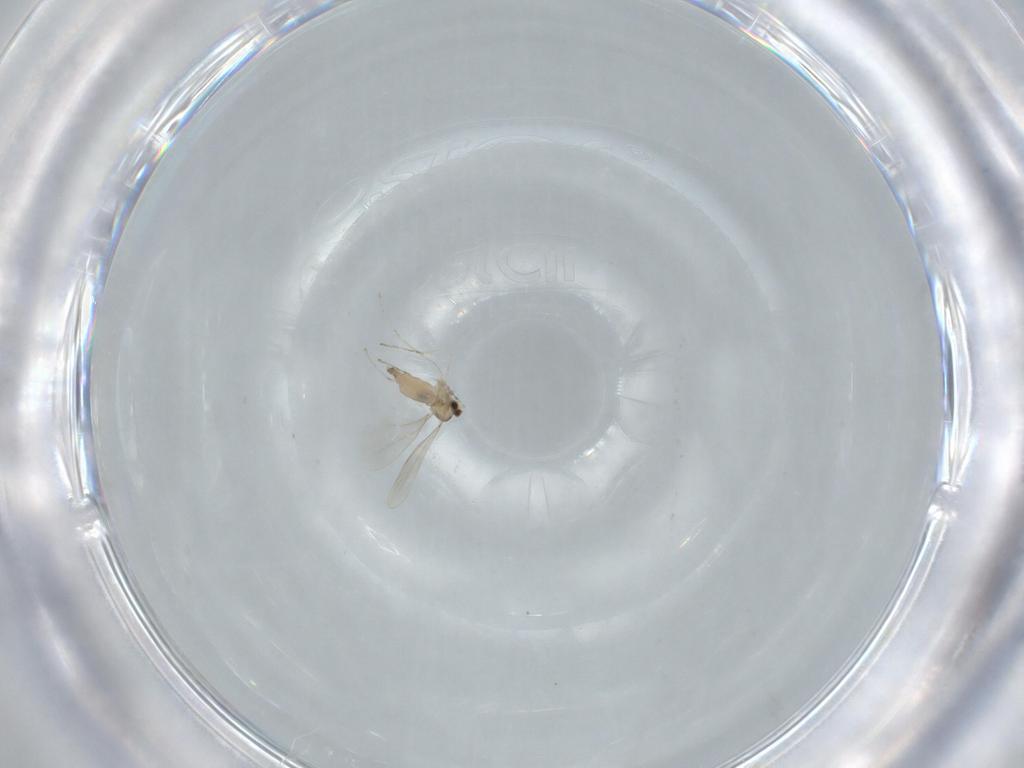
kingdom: Animalia
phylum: Arthropoda
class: Insecta
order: Diptera
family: Cecidomyiidae
